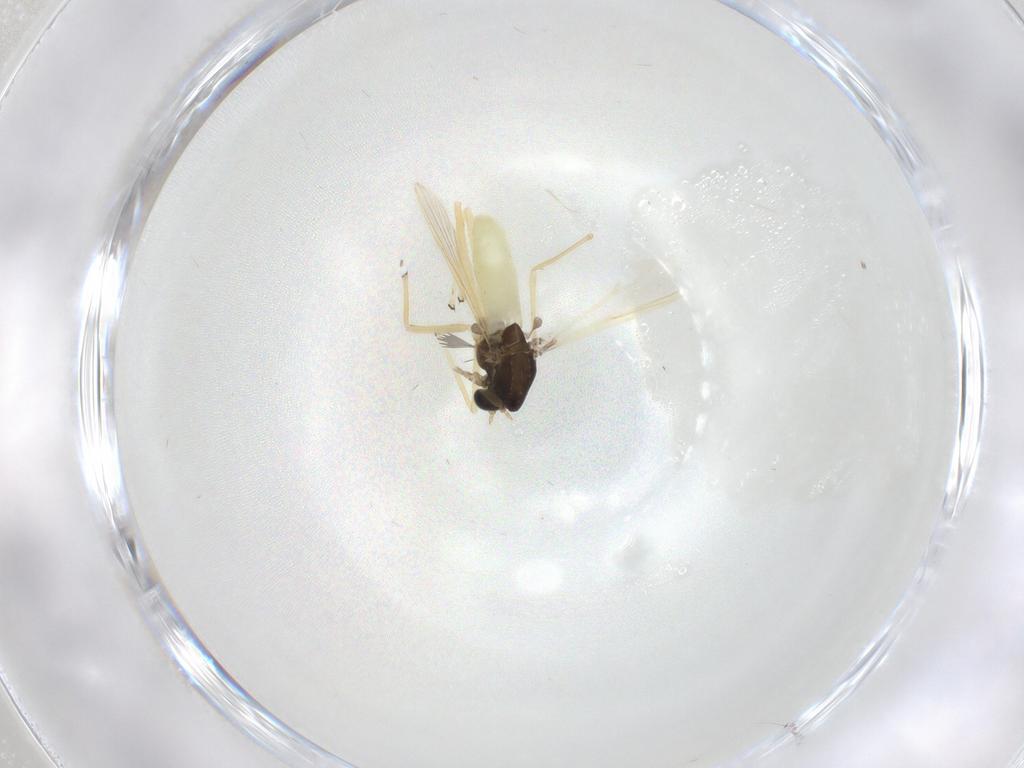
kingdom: Animalia
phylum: Arthropoda
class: Insecta
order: Diptera
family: Chironomidae
